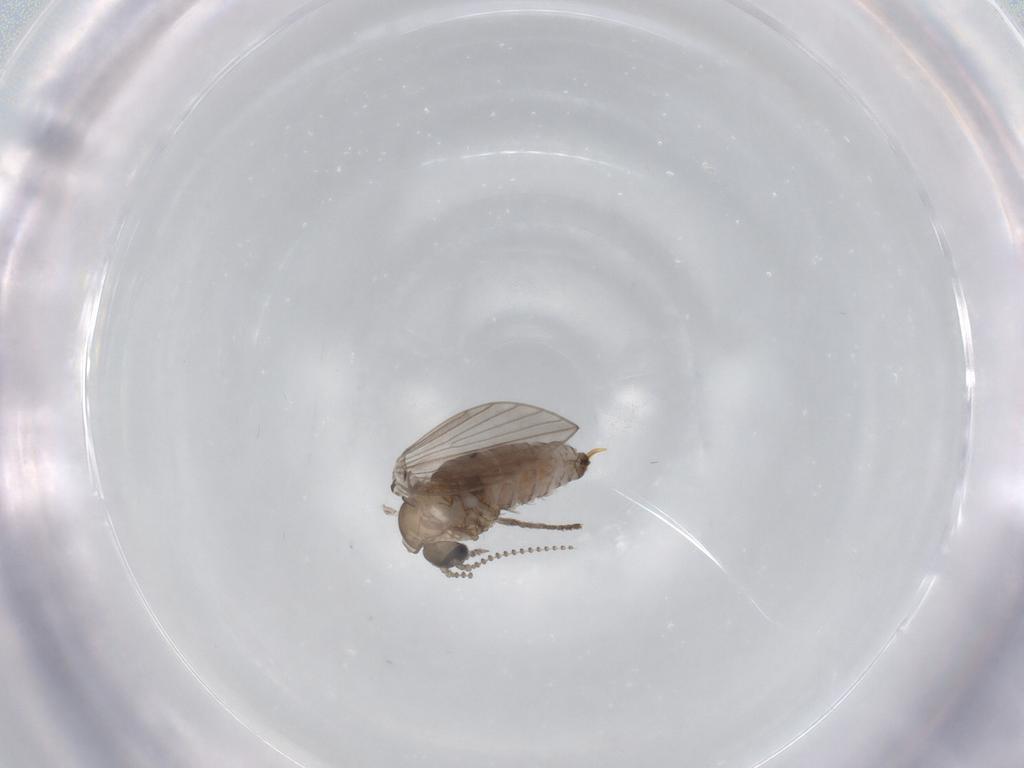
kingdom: Animalia
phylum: Arthropoda
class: Insecta
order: Diptera
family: Psychodidae
